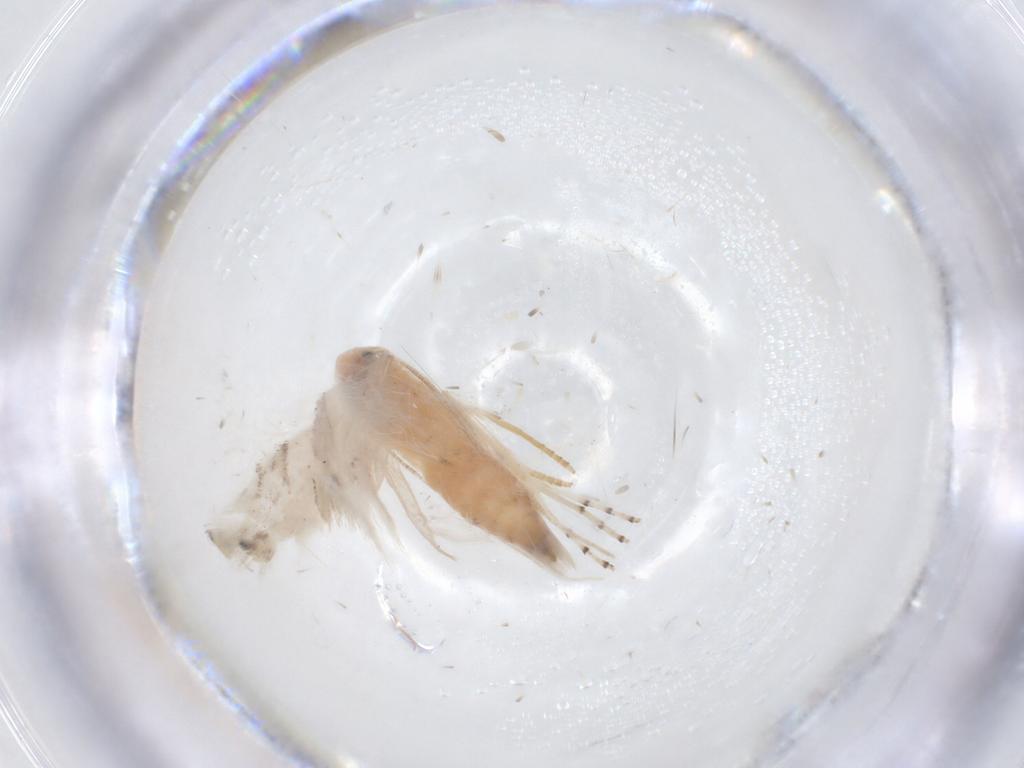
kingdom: Animalia
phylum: Arthropoda
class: Insecta
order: Lepidoptera
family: Lyonetiidae
